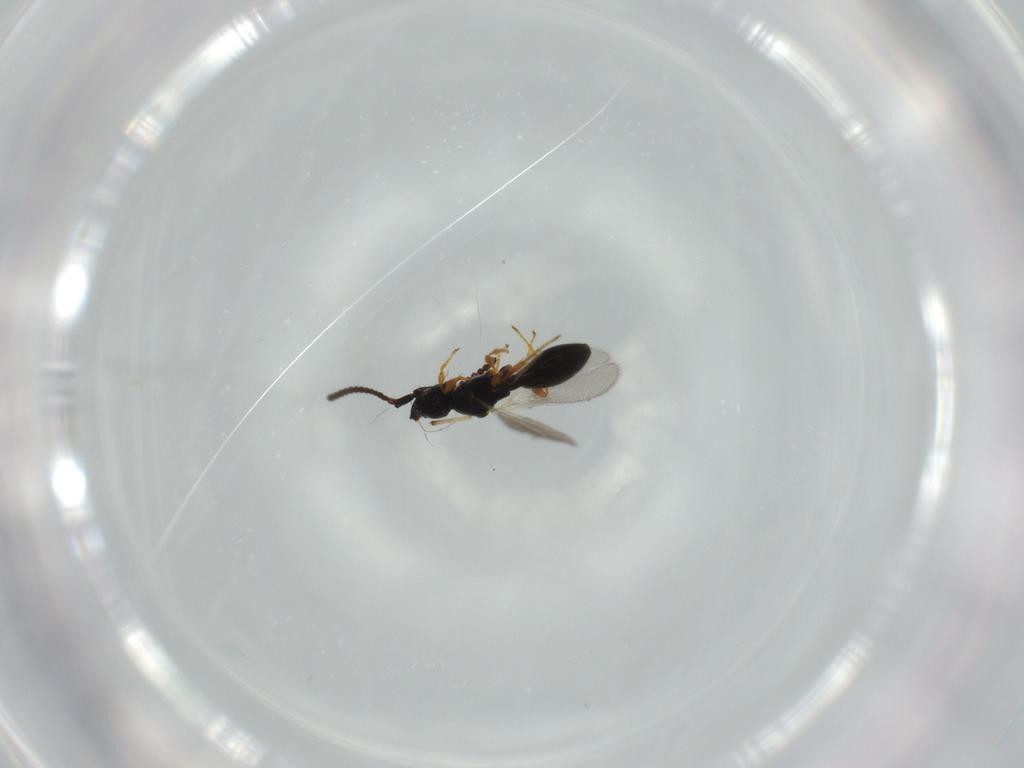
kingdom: Animalia
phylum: Arthropoda
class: Insecta
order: Hymenoptera
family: Diapriidae
